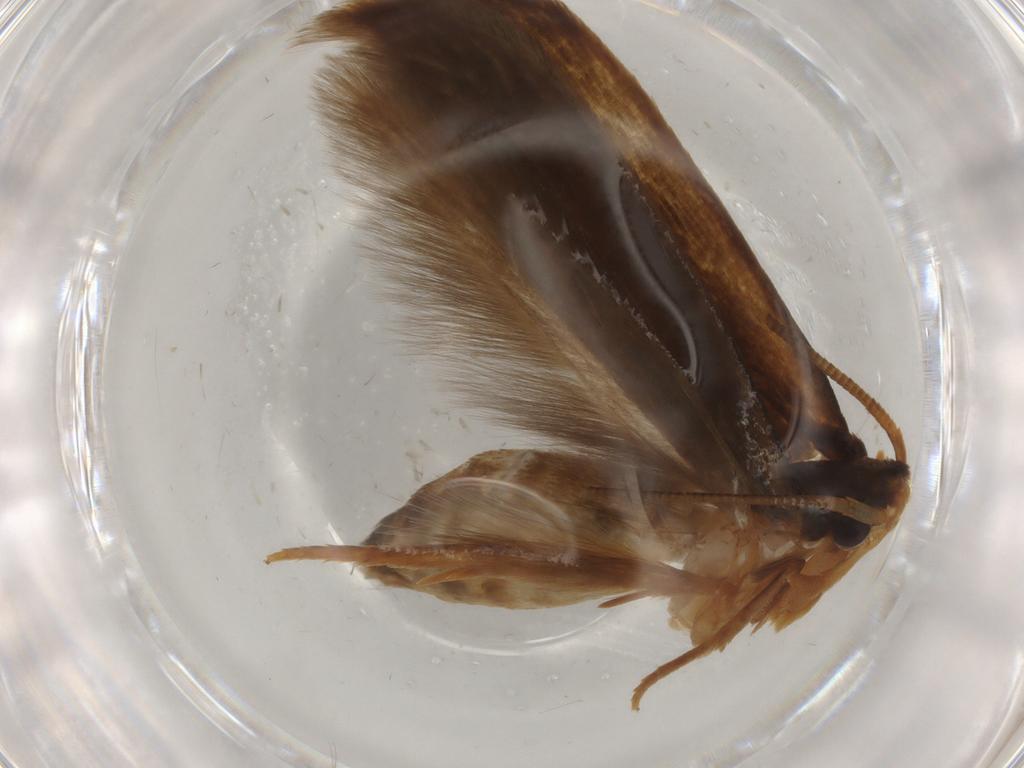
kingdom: Animalia
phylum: Arthropoda
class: Insecta
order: Lepidoptera
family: Tineidae
